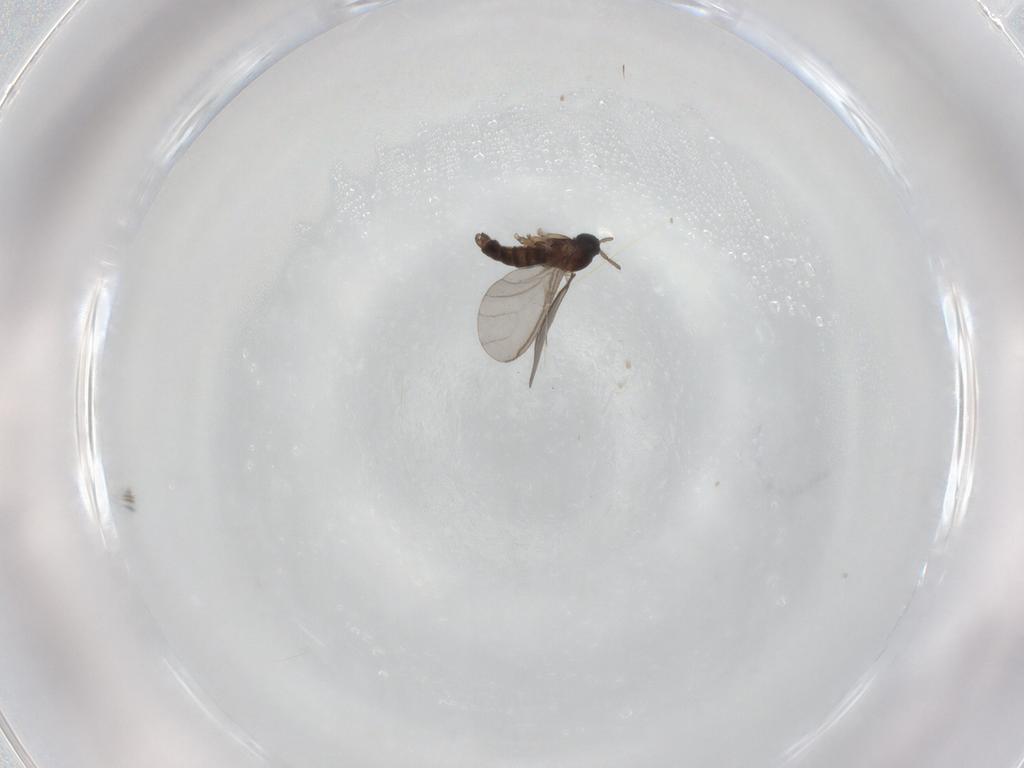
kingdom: Animalia
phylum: Arthropoda
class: Insecta
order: Diptera
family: Sciaridae
